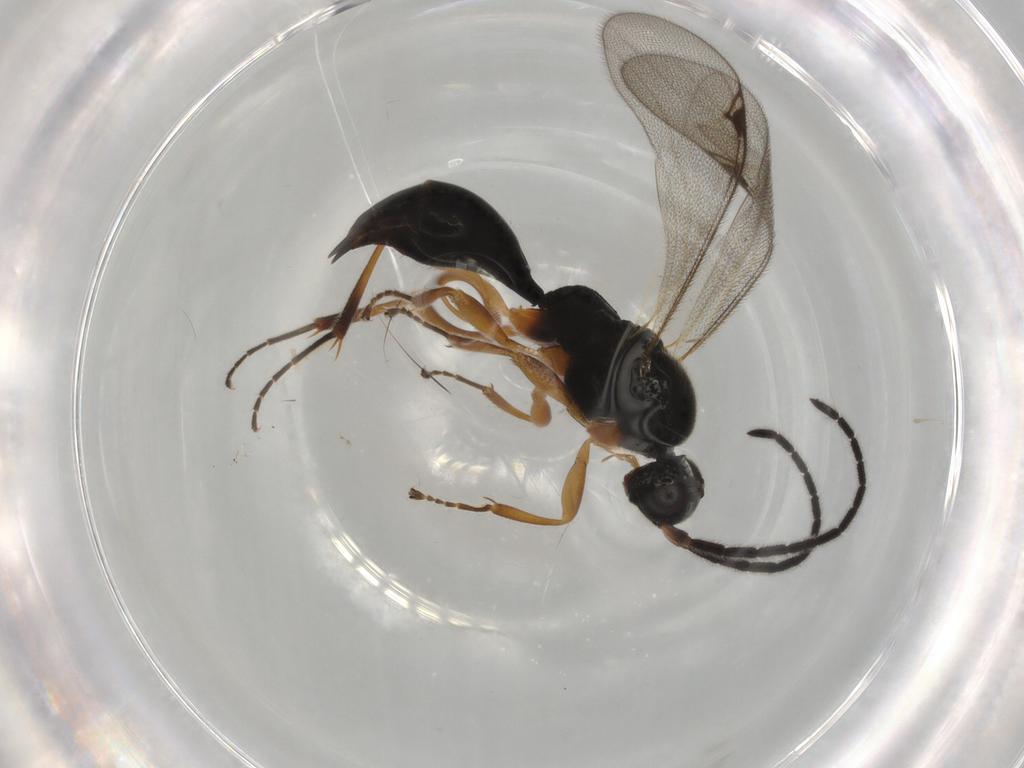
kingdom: Animalia
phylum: Arthropoda
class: Insecta
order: Hymenoptera
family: Proctotrupidae
